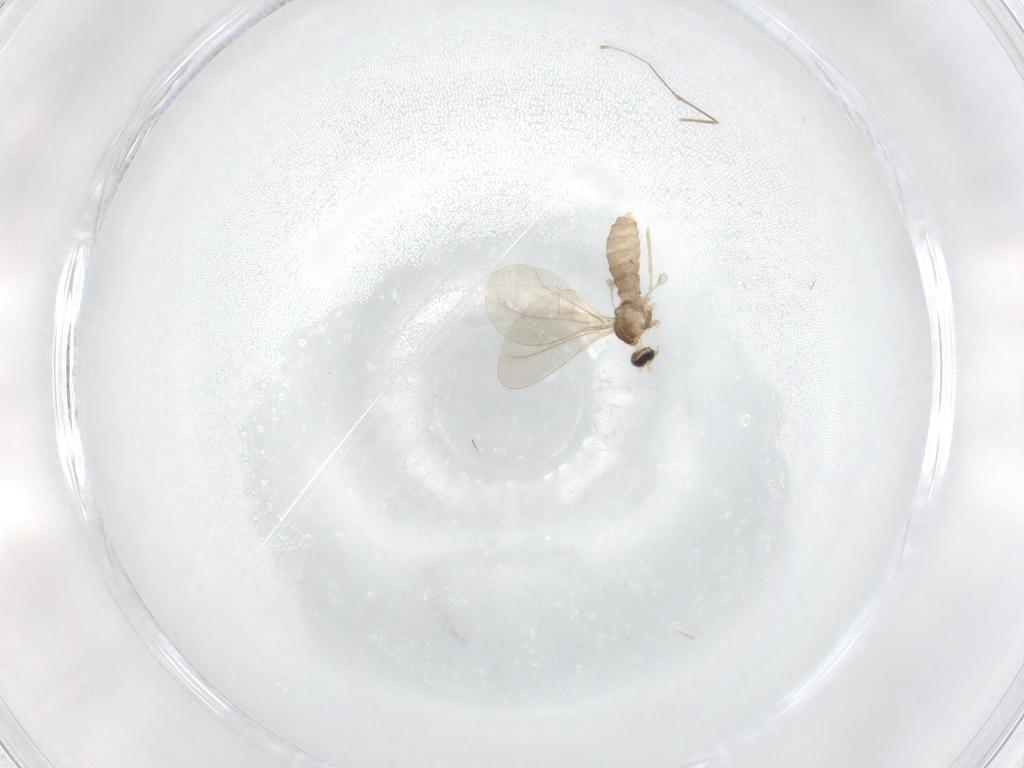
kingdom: Animalia
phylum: Arthropoda
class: Insecta
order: Diptera
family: Cecidomyiidae
